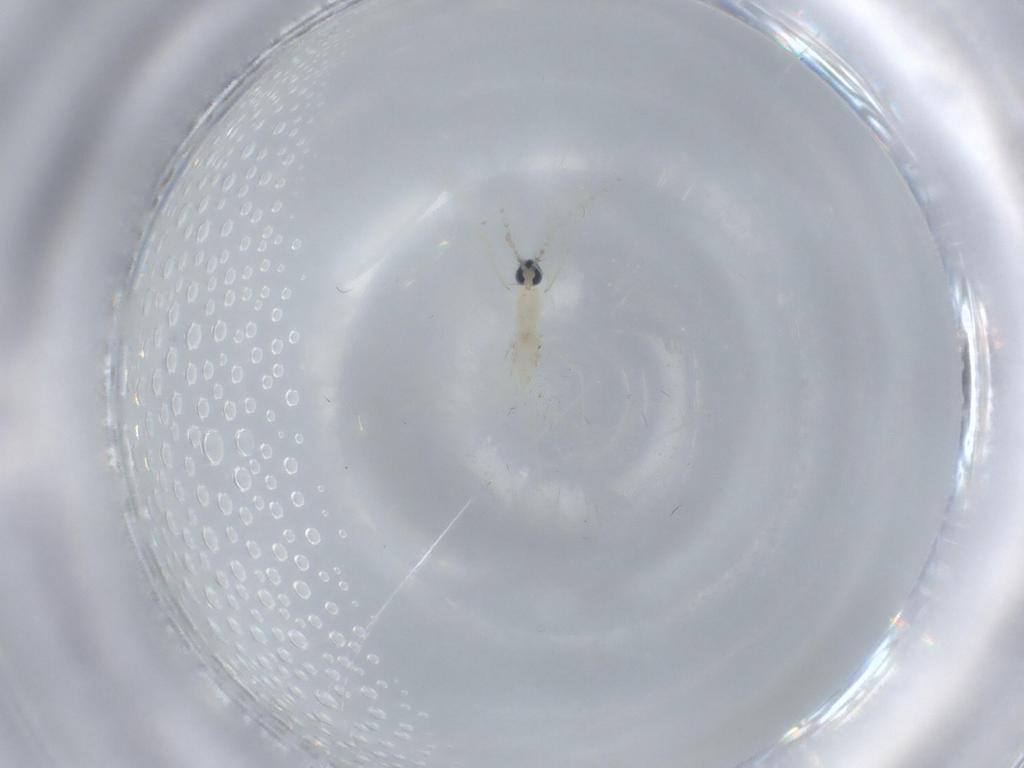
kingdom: Animalia
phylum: Arthropoda
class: Insecta
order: Diptera
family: Cecidomyiidae
